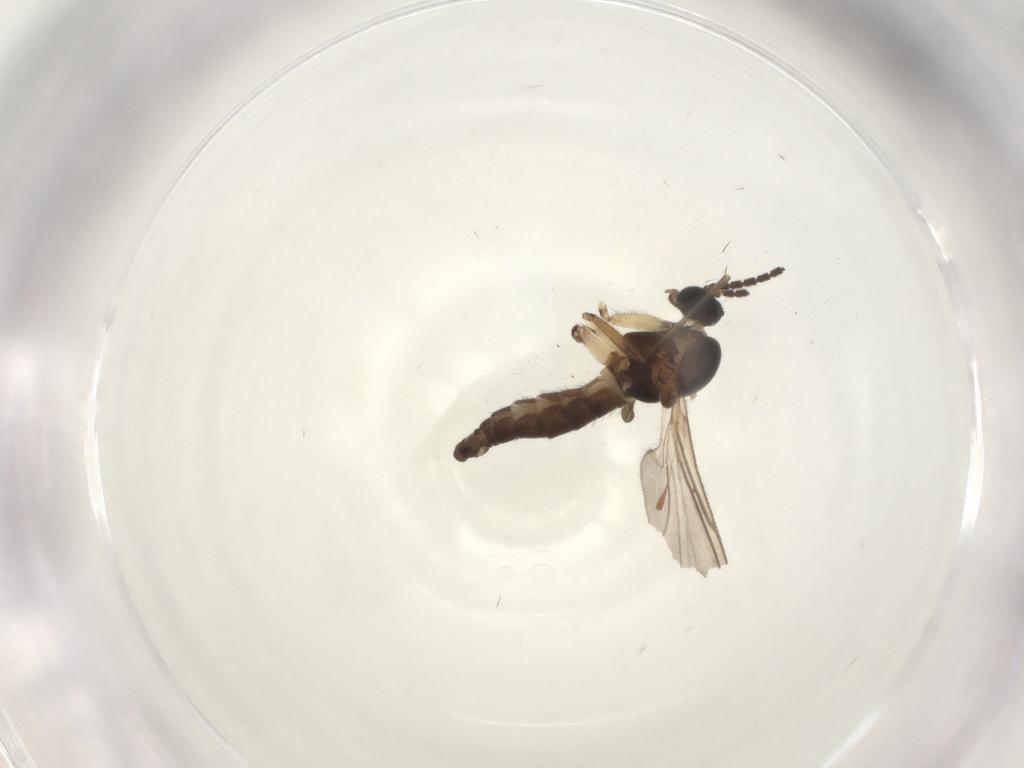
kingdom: Animalia
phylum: Arthropoda
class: Insecta
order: Diptera
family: Sciaridae
